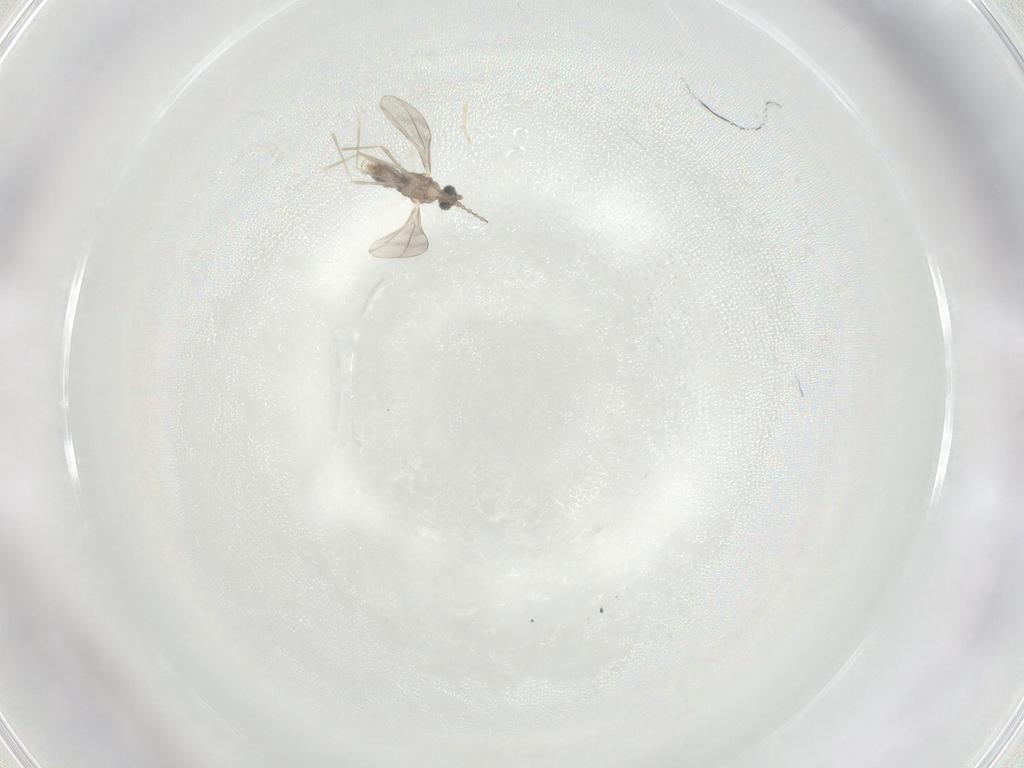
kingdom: Animalia
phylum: Arthropoda
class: Insecta
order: Diptera
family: Cecidomyiidae
